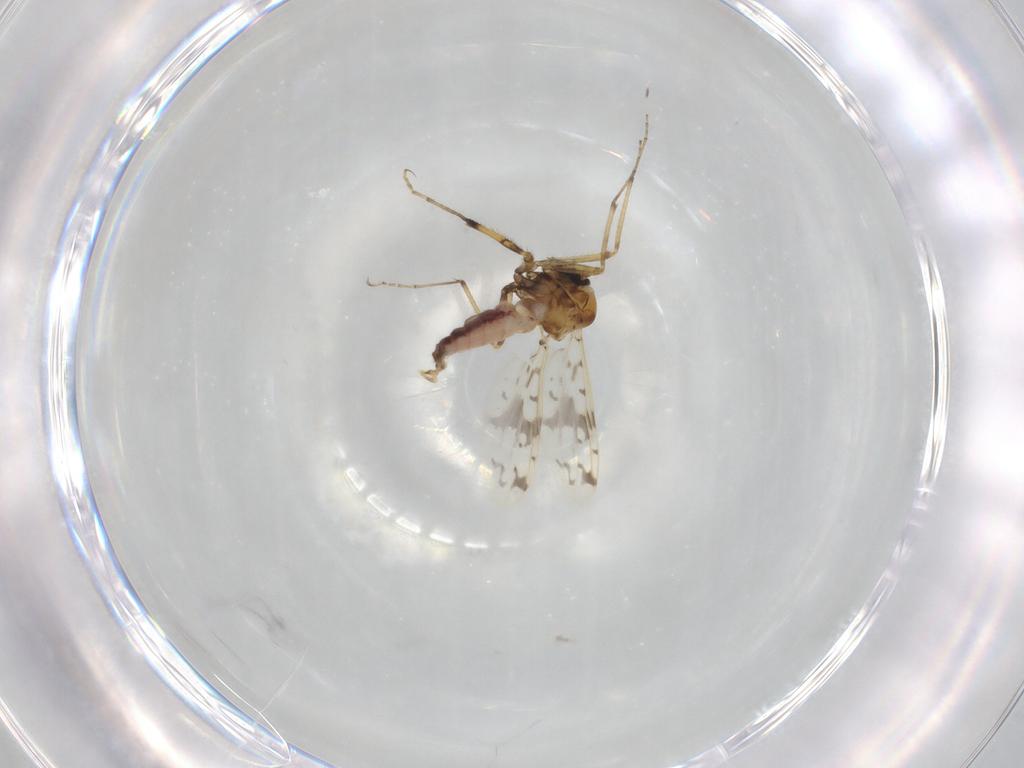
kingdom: Animalia
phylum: Arthropoda
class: Insecta
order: Diptera
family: Ceratopogonidae
